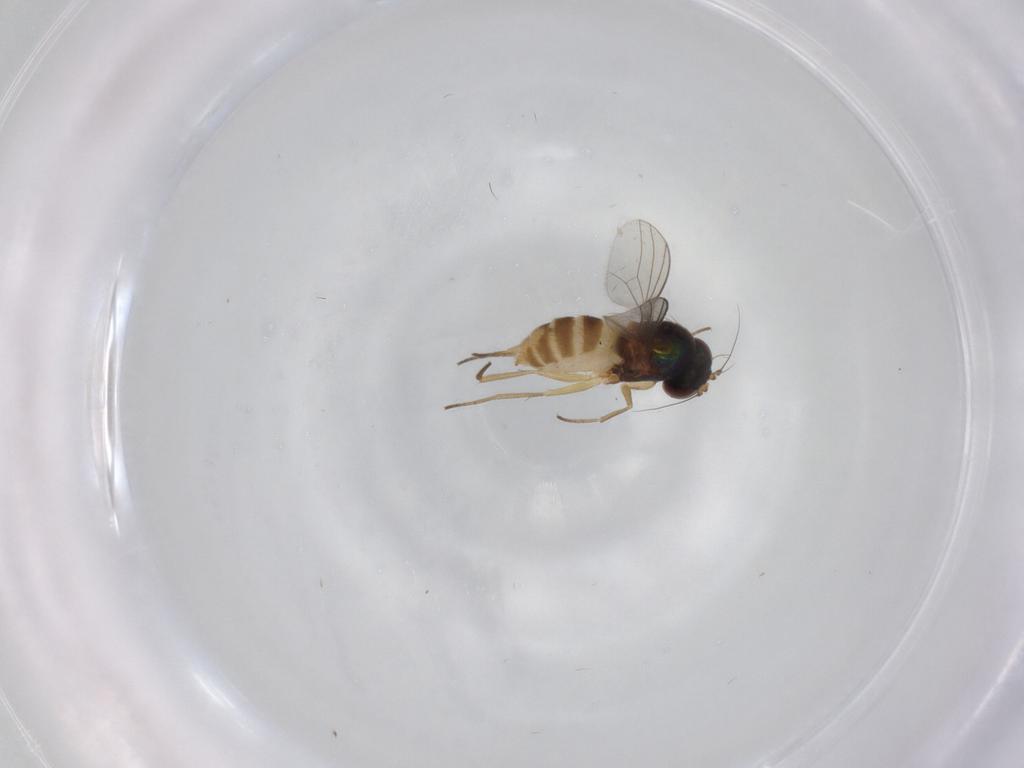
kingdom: Animalia
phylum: Arthropoda
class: Insecta
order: Diptera
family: Dolichopodidae
